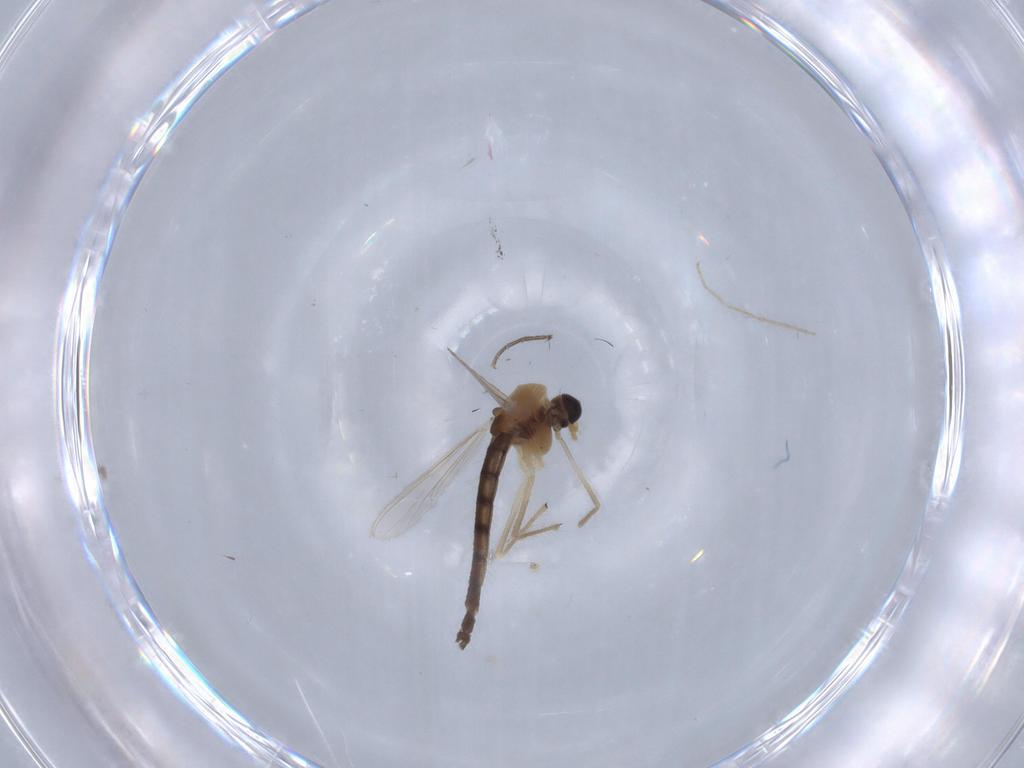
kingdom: Animalia
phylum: Arthropoda
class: Insecta
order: Diptera
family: Chironomidae
